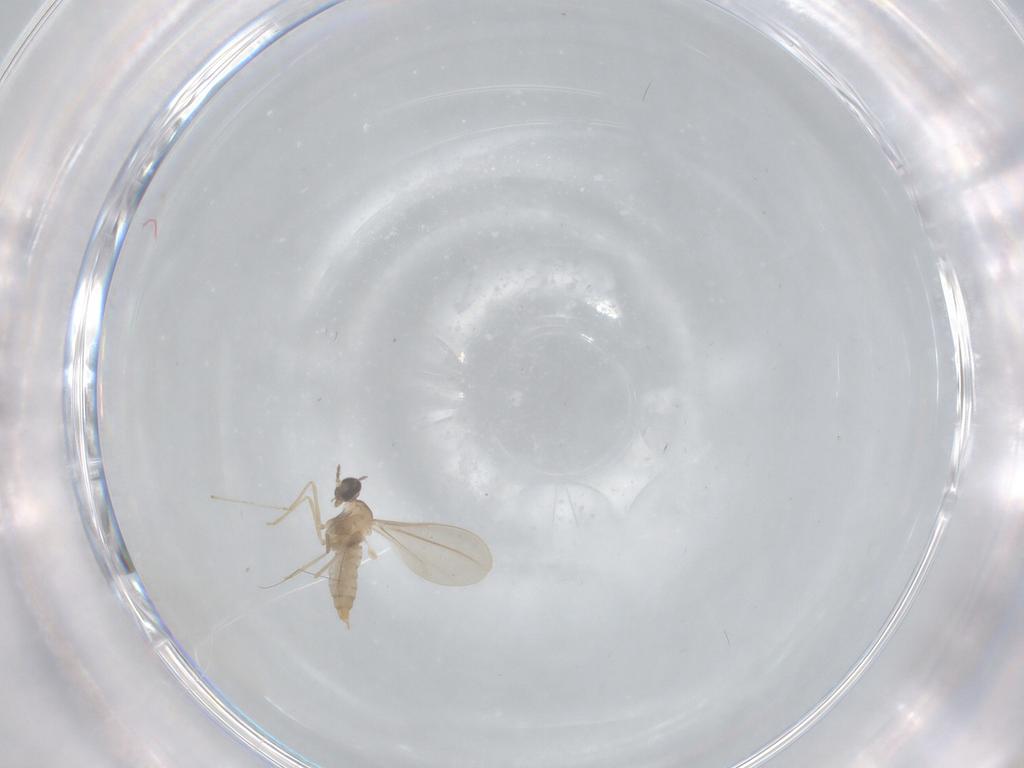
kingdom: Animalia
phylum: Arthropoda
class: Insecta
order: Diptera
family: Cecidomyiidae
